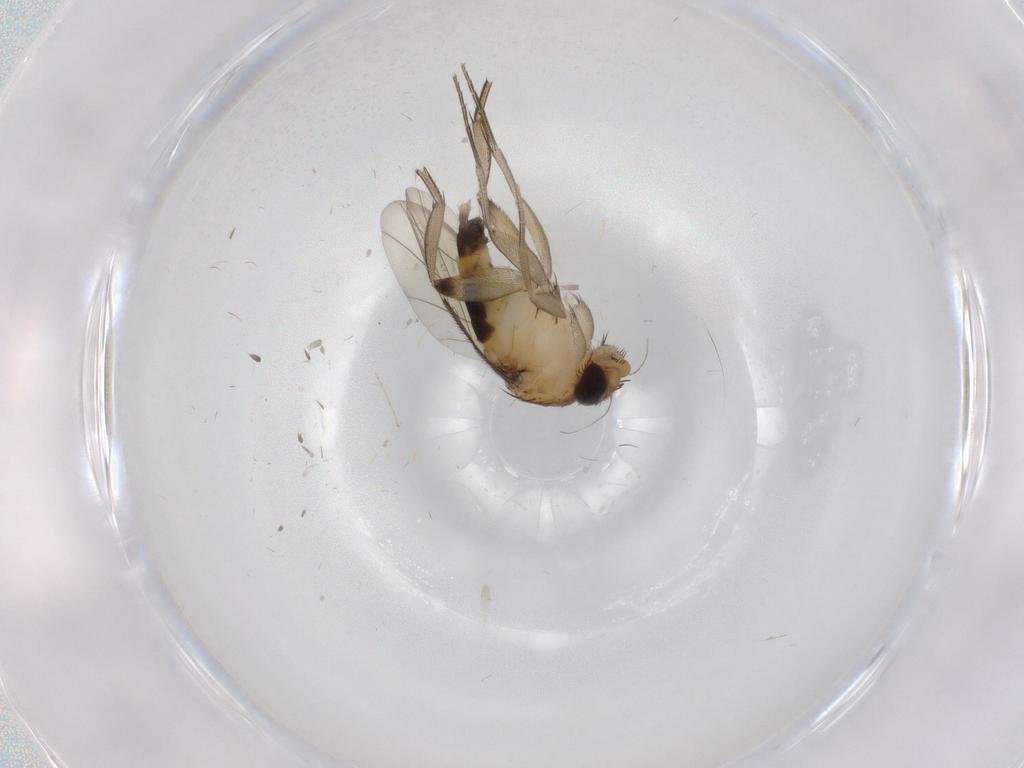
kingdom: Animalia
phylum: Arthropoda
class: Insecta
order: Diptera
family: Phoridae
